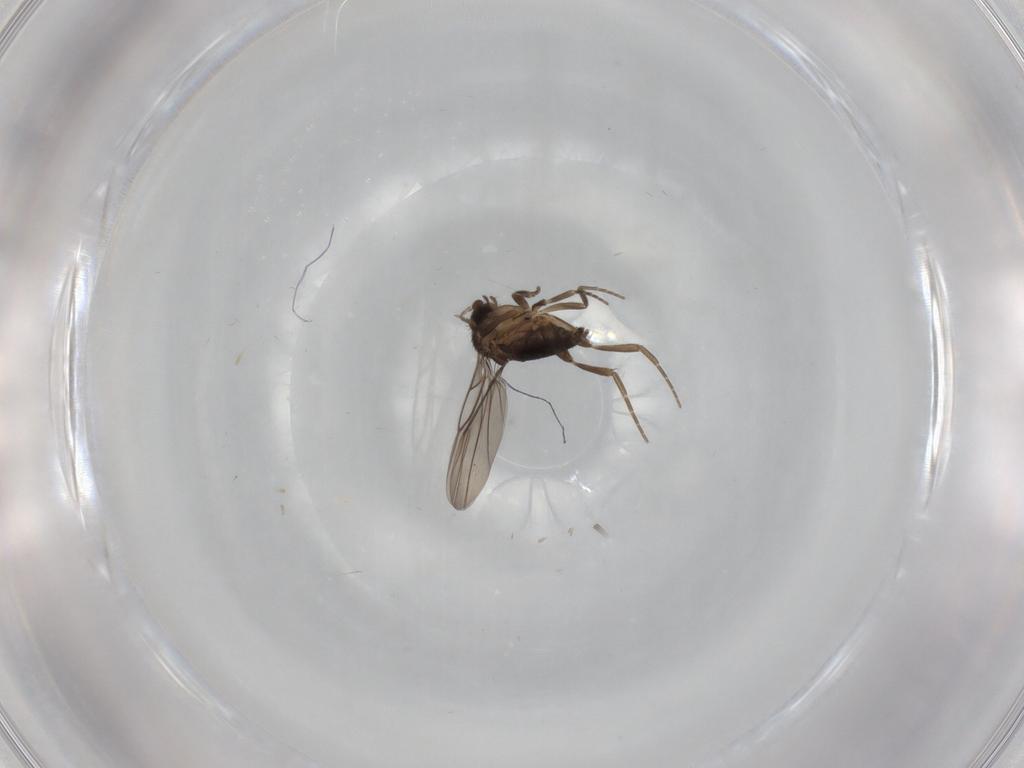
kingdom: Animalia
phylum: Arthropoda
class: Insecta
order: Diptera
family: Phoridae
